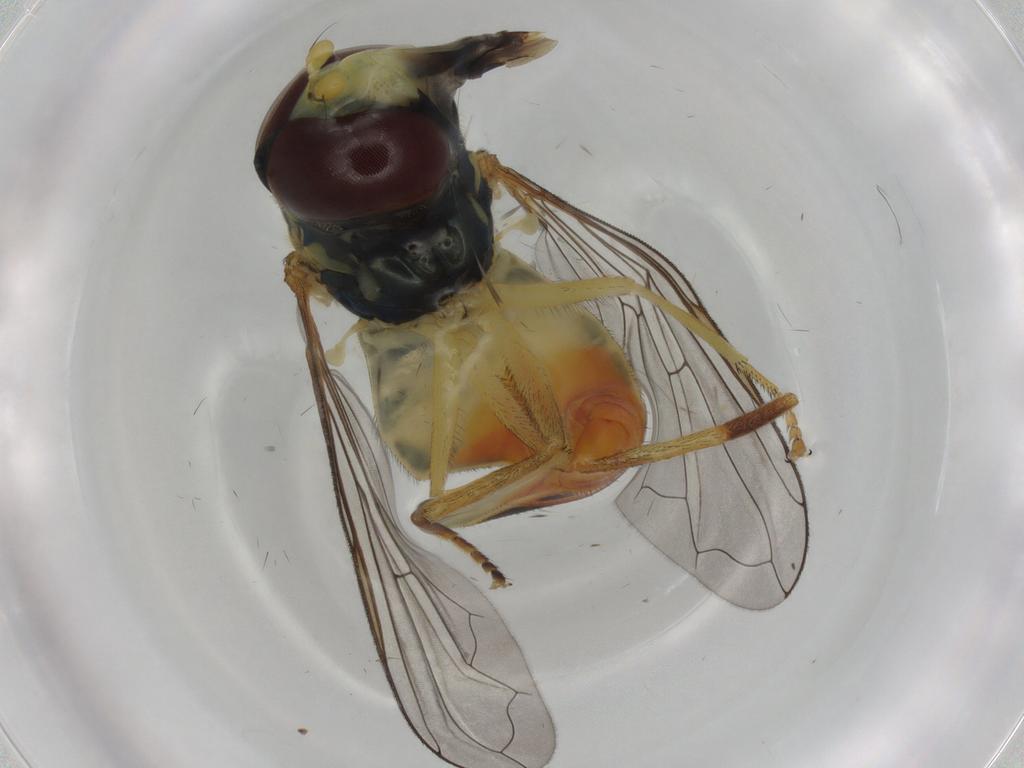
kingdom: Animalia
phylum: Arthropoda
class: Insecta
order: Diptera
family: Syrphidae
